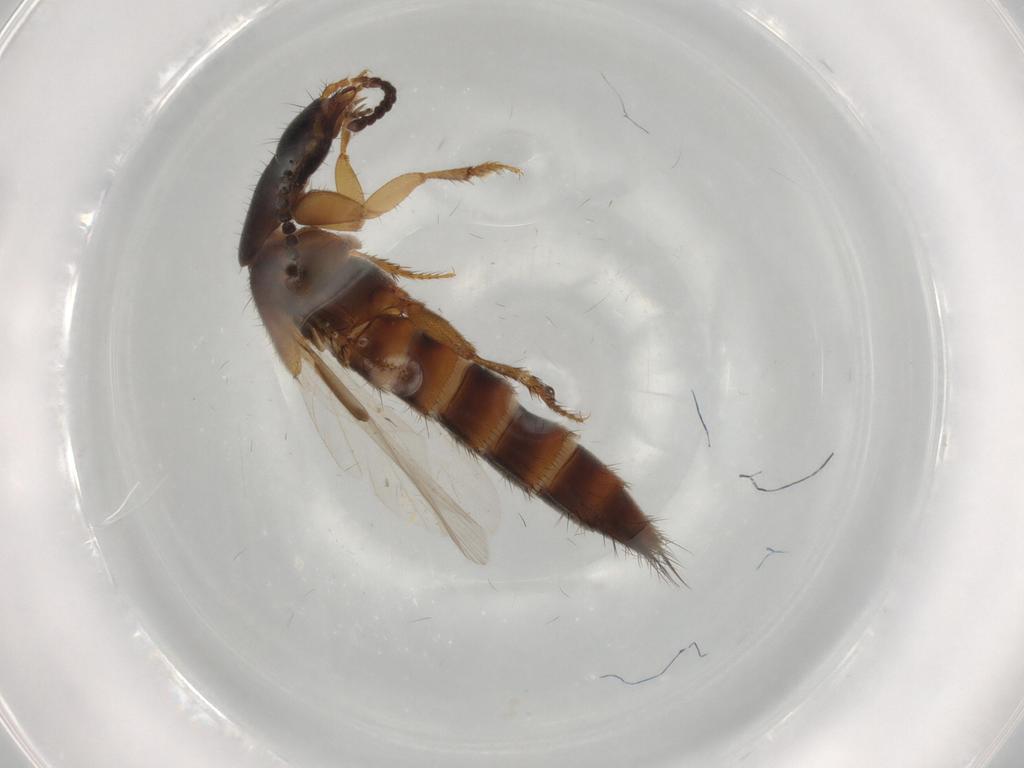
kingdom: Animalia
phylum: Arthropoda
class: Insecta
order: Coleoptera
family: Staphylinidae
